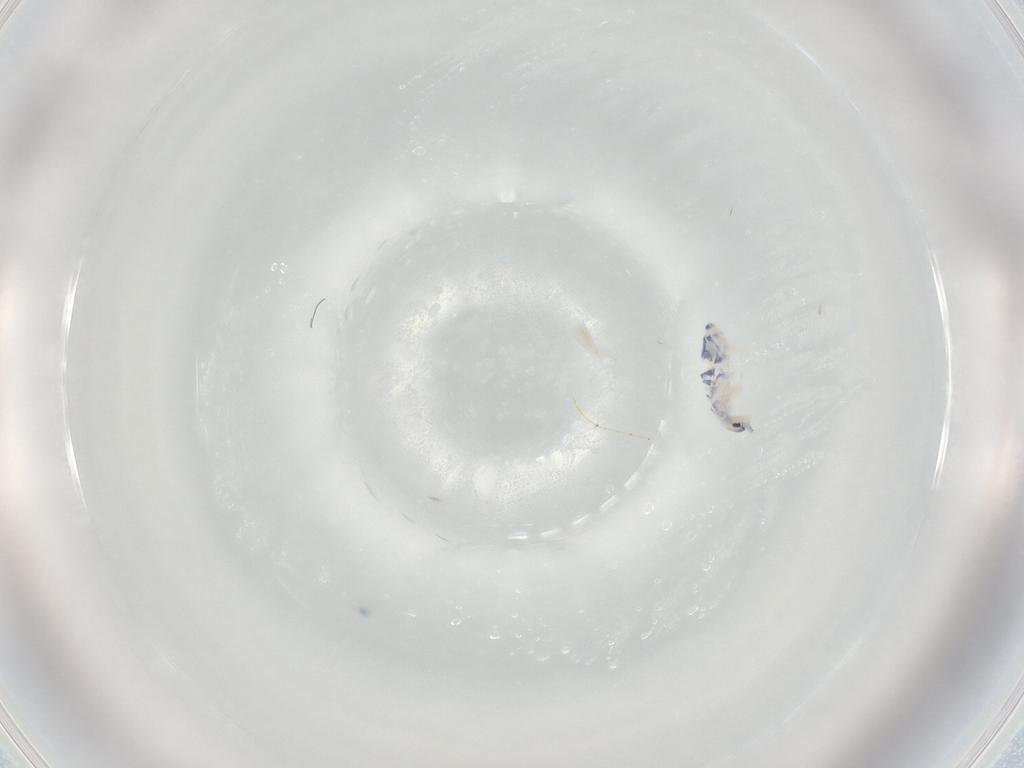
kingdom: Animalia
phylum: Arthropoda
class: Collembola
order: Entomobryomorpha
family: Entomobryidae
